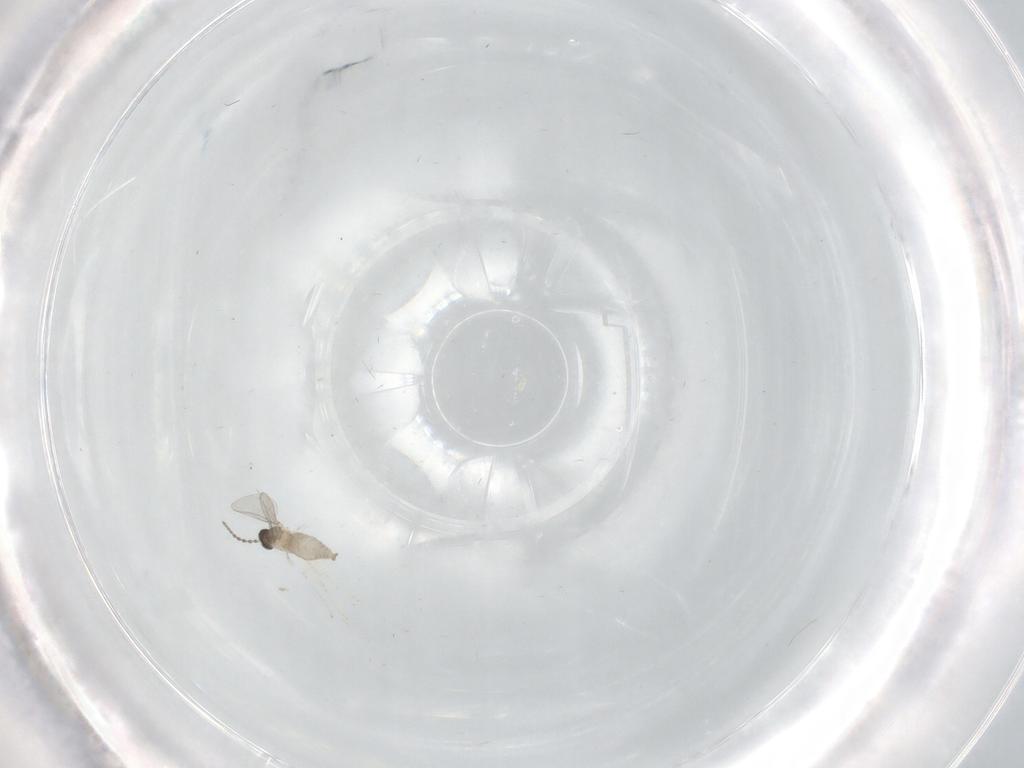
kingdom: Animalia
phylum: Arthropoda
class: Insecta
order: Diptera
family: Cecidomyiidae
